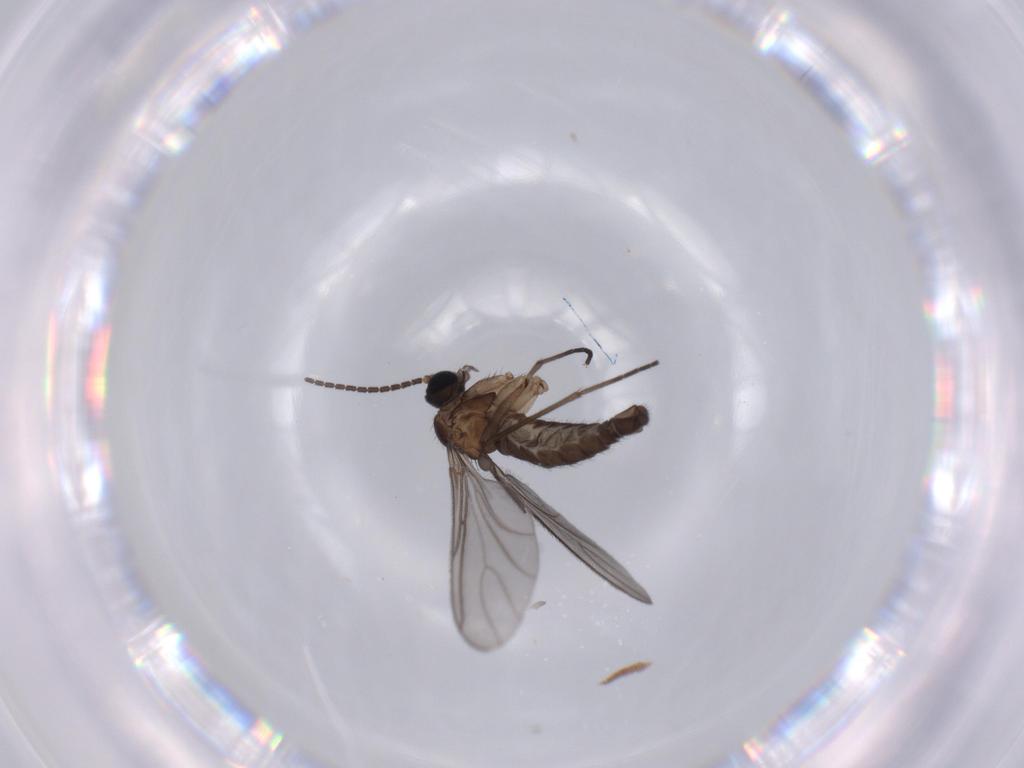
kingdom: Animalia
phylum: Arthropoda
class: Insecta
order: Diptera
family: Sciaridae
